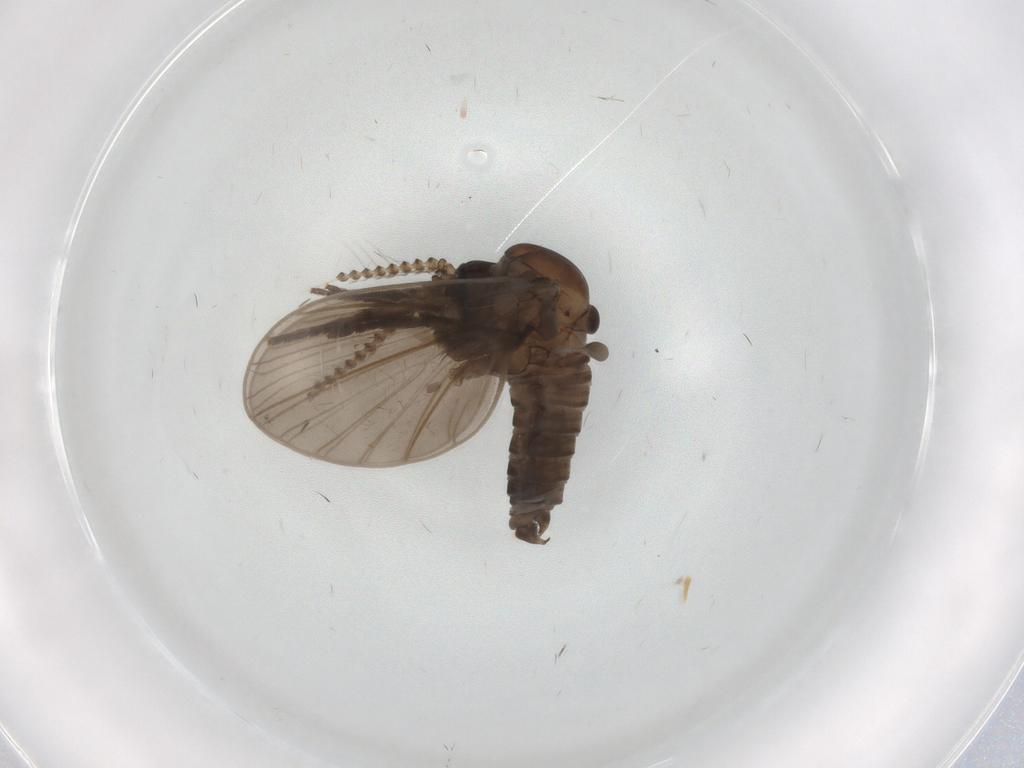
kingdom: Animalia
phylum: Arthropoda
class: Insecta
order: Diptera
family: Psychodidae
